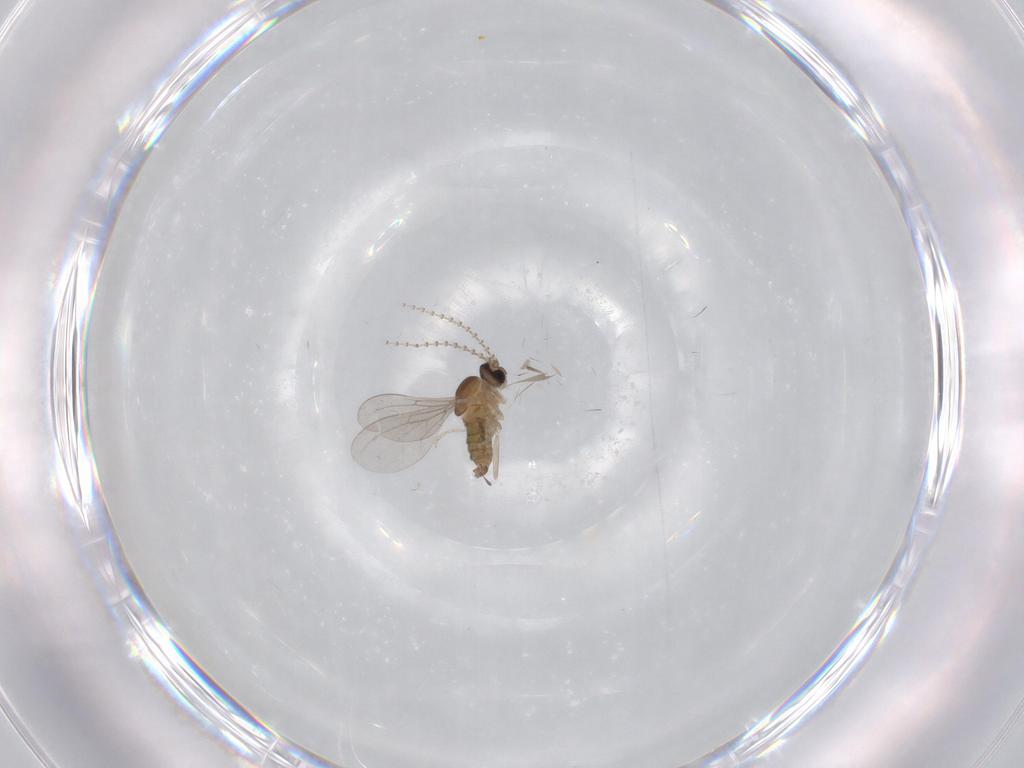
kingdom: Animalia
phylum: Arthropoda
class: Insecta
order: Diptera
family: Cecidomyiidae
